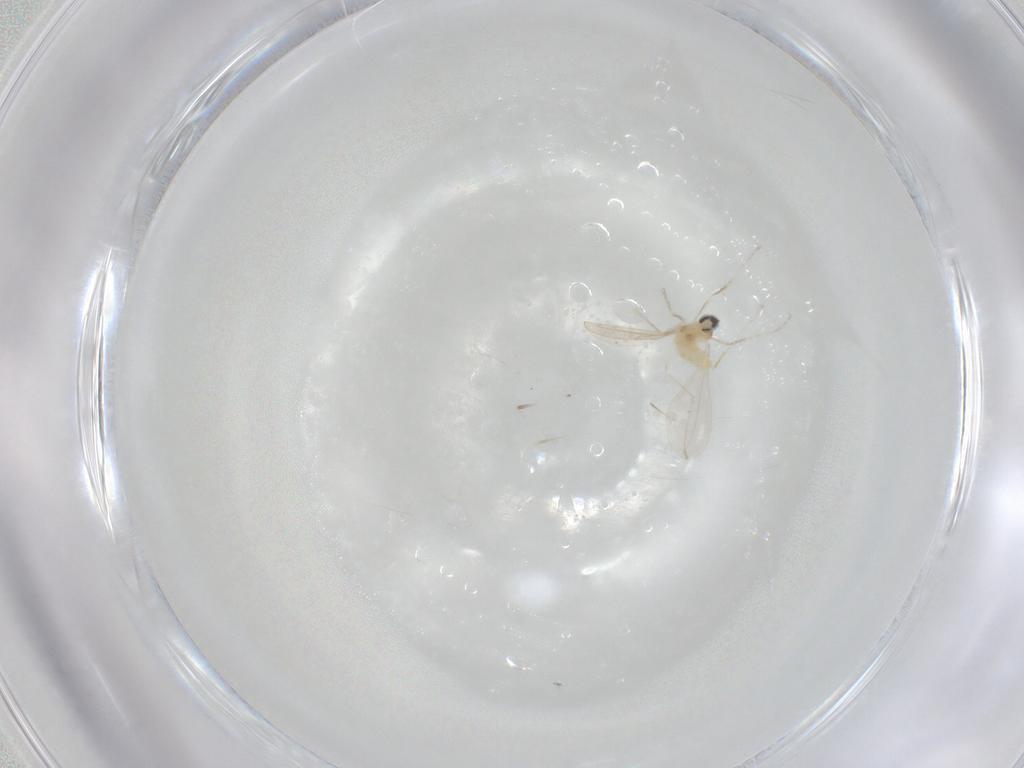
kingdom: Animalia
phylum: Arthropoda
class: Insecta
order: Diptera
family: Cecidomyiidae
